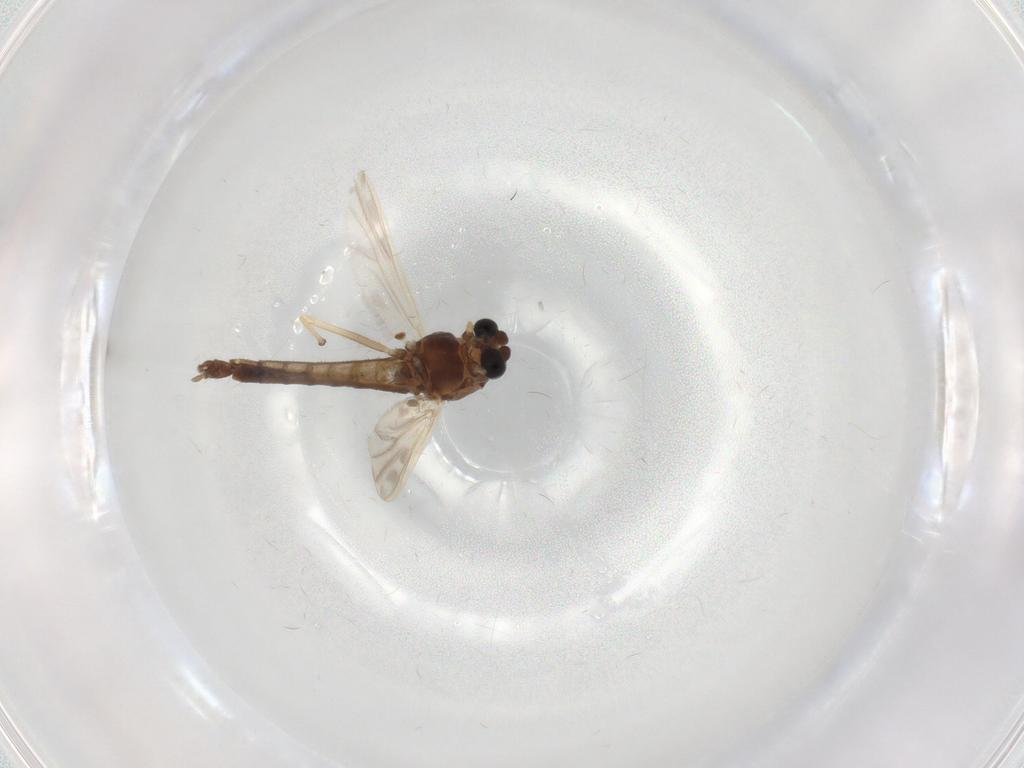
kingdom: Animalia
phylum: Arthropoda
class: Insecta
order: Diptera
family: Chironomidae
